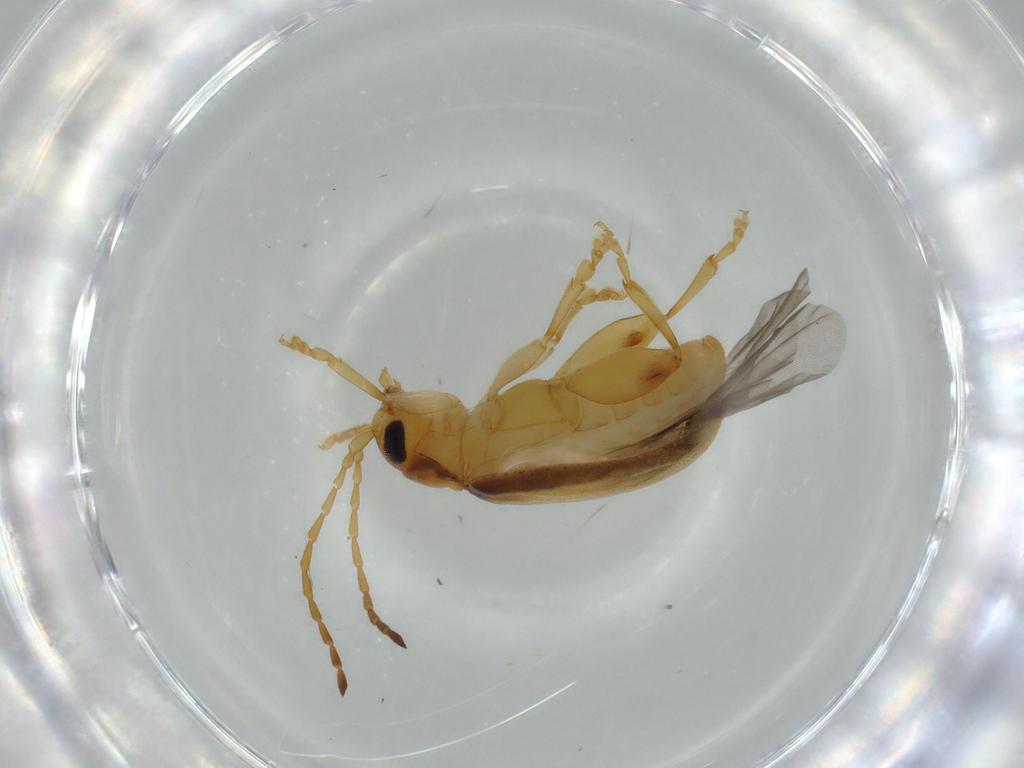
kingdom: Animalia
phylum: Arthropoda
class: Insecta
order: Coleoptera
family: Chrysomelidae
